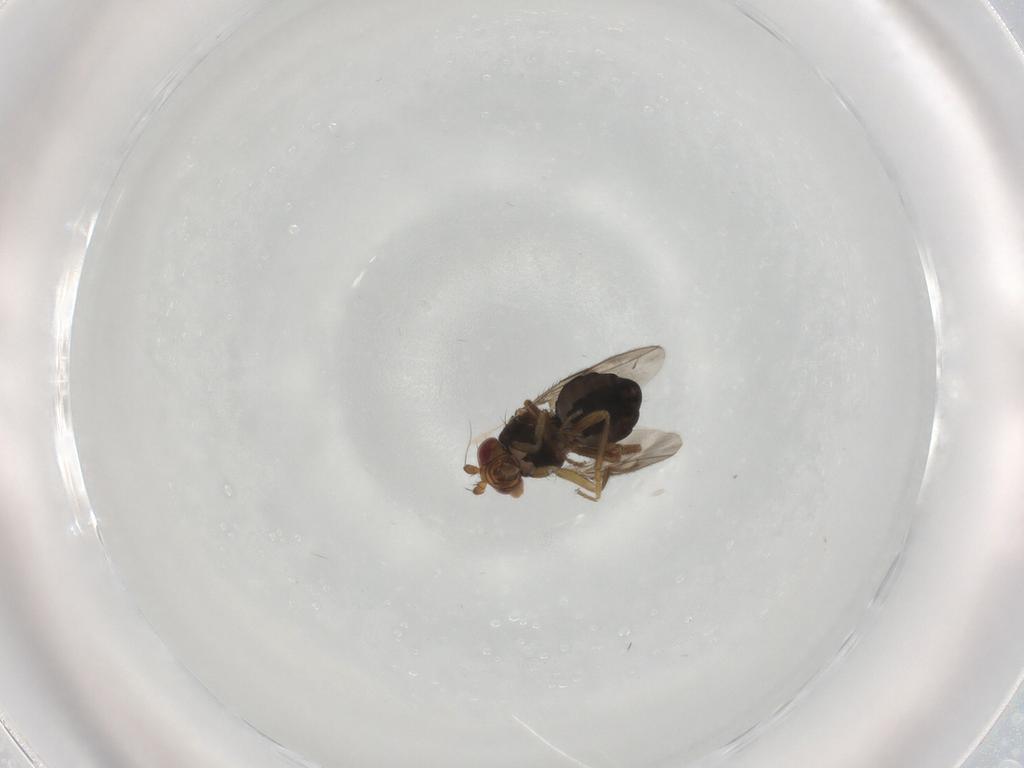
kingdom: Animalia
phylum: Arthropoda
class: Insecta
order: Diptera
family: Sphaeroceridae
